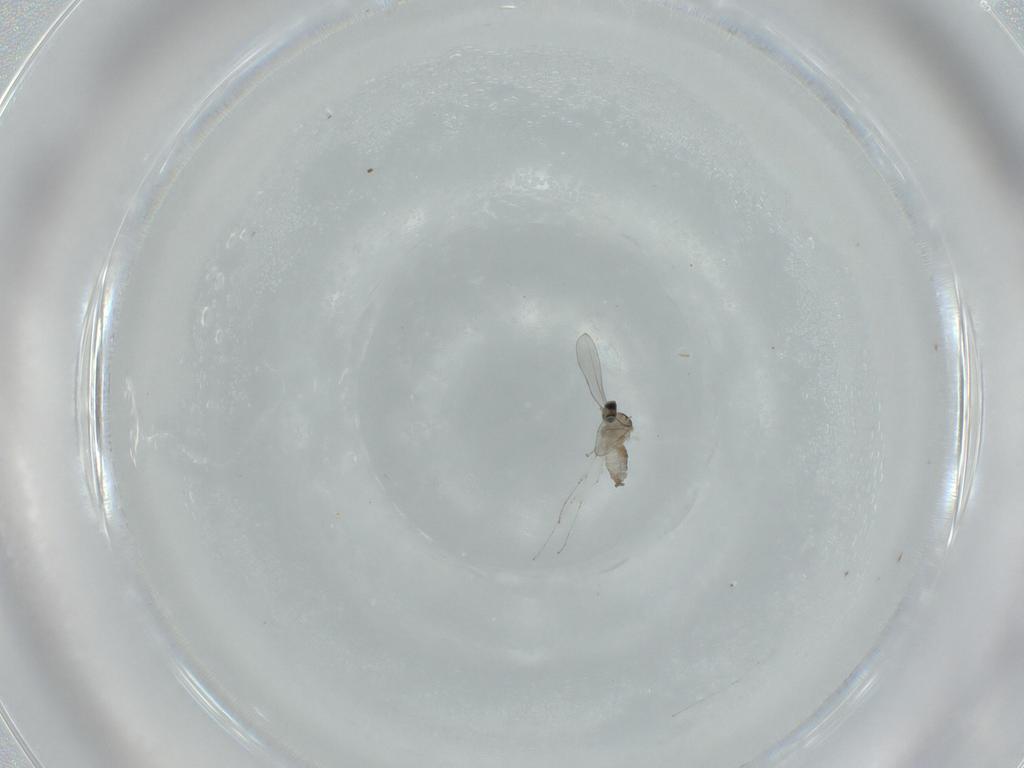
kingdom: Animalia
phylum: Arthropoda
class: Insecta
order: Diptera
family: Cecidomyiidae
